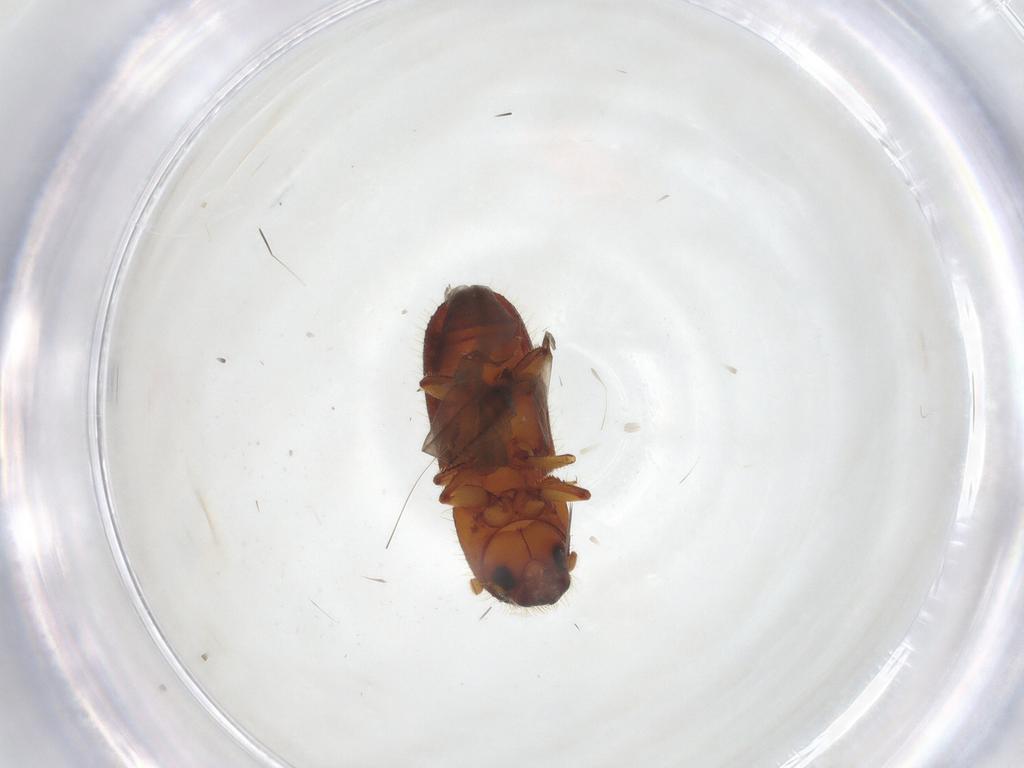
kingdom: Animalia
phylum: Arthropoda
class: Insecta
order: Coleoptera
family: Curculionidae
